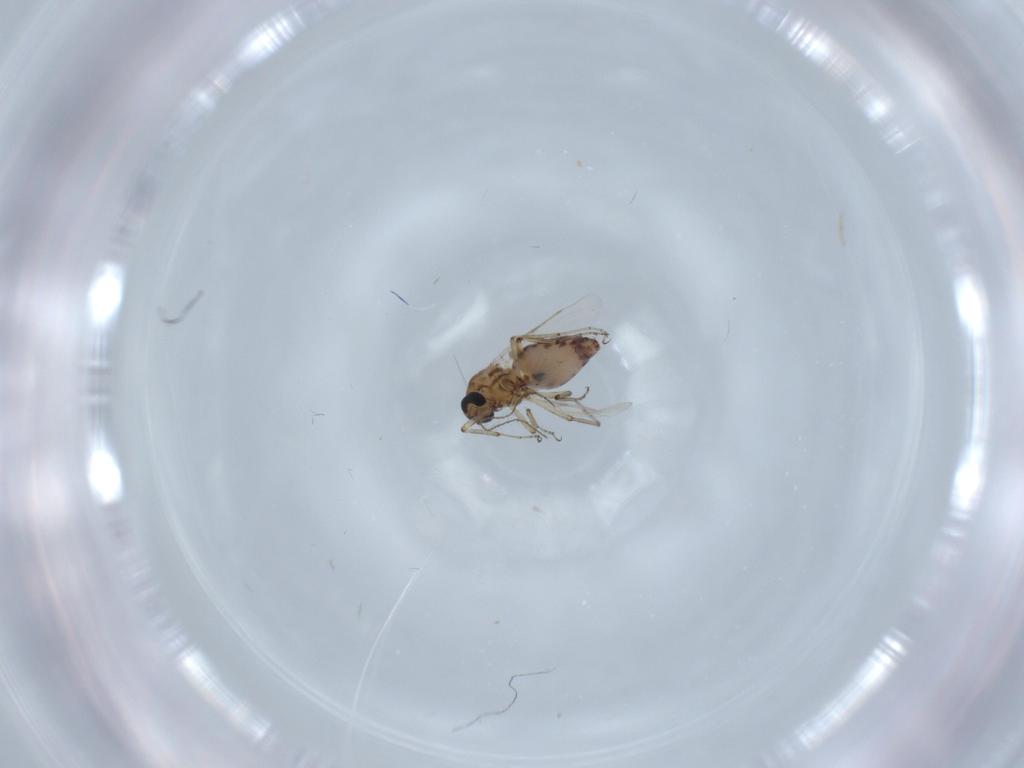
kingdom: Animalia
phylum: Arthropoda
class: Insecta
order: Diptera
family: Ceratopogonidae
